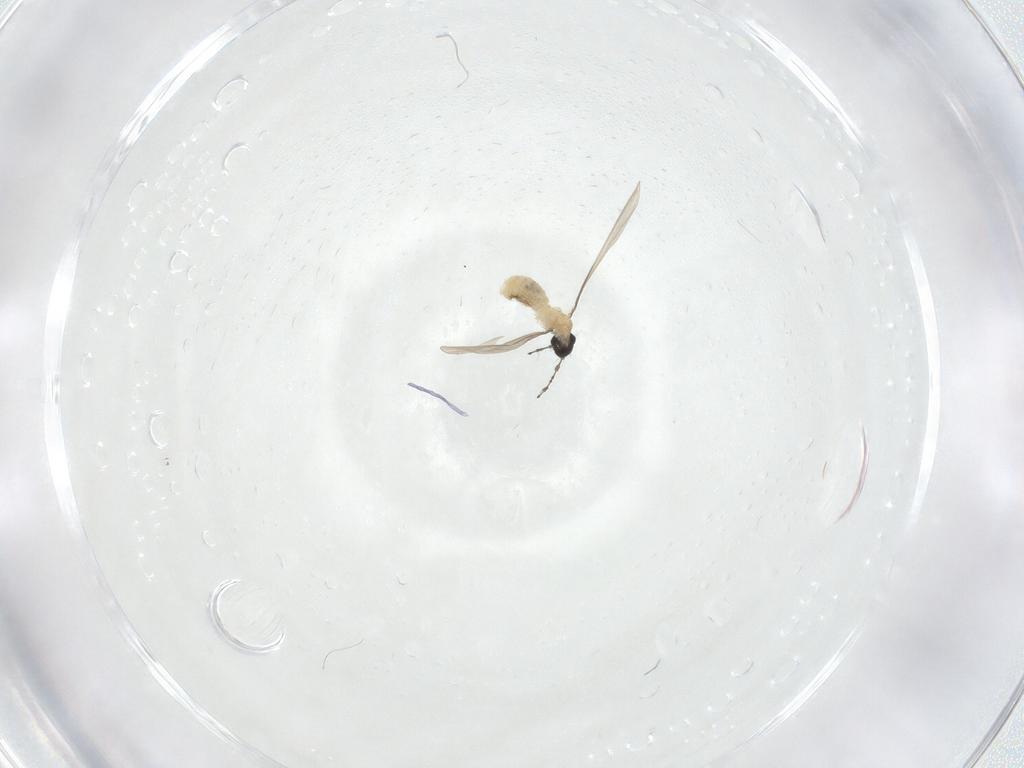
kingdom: Animalia
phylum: Arthropoda
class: Insecta
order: Diptera
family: Cecidomyiidae
